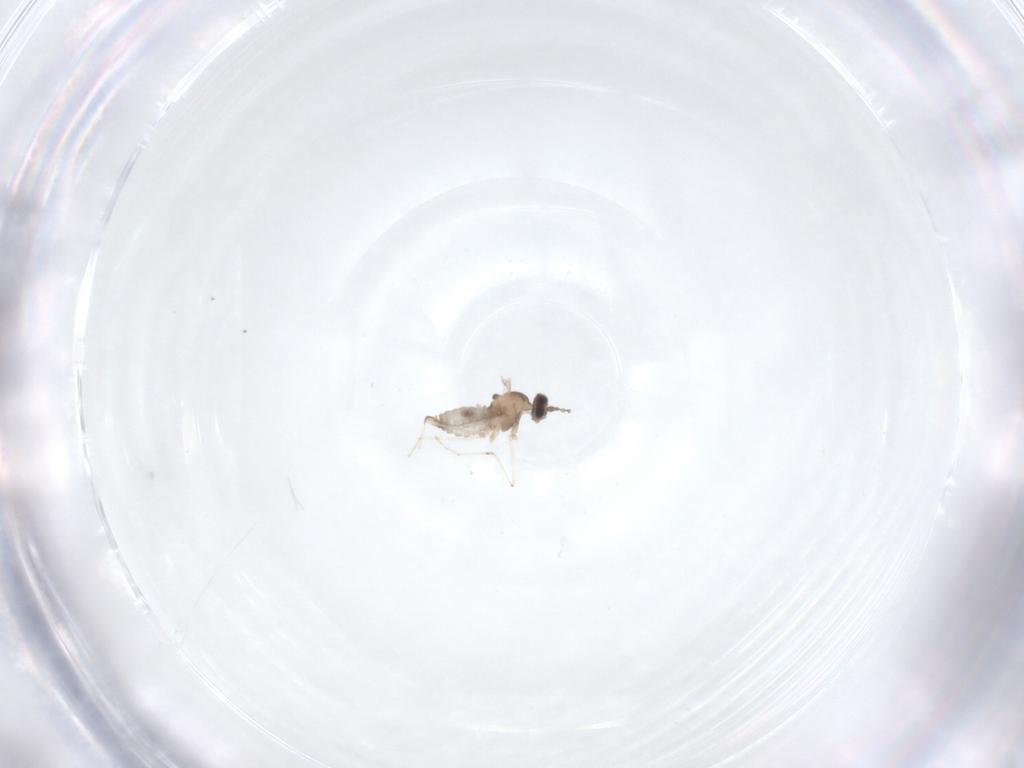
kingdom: Animalia
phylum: Arthropoda
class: Insecta
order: Diptera
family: Cecidomyiidae
